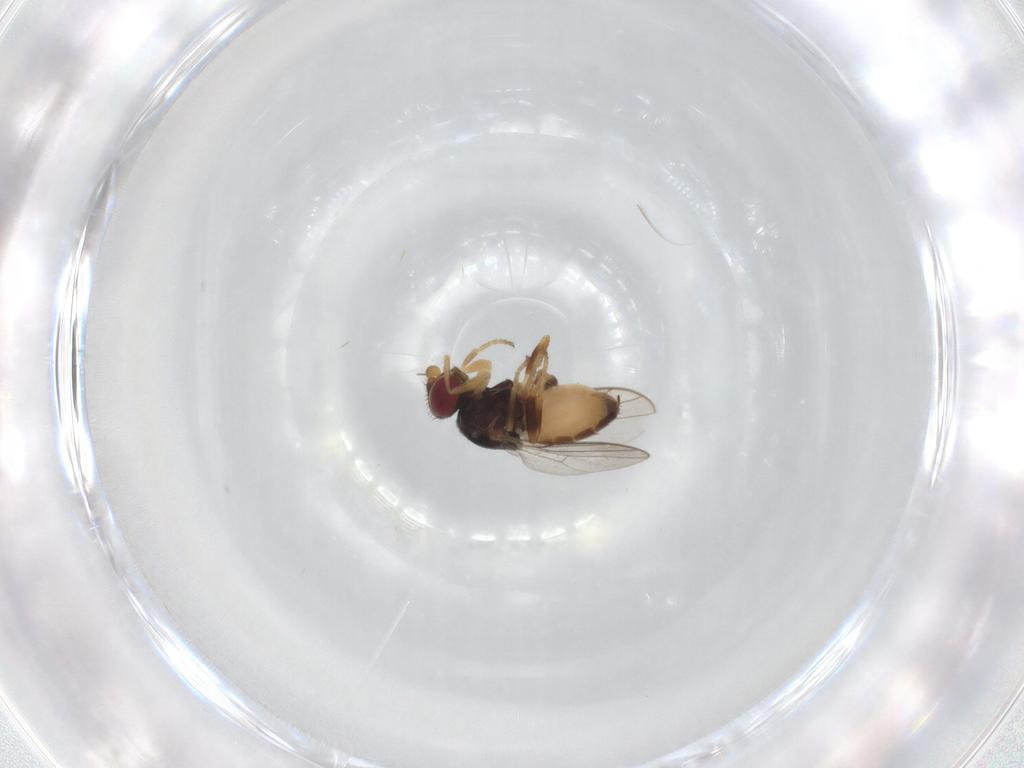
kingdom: Animalia
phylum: Arthropoda
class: Insecta
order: Diptera
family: Chloropidae
